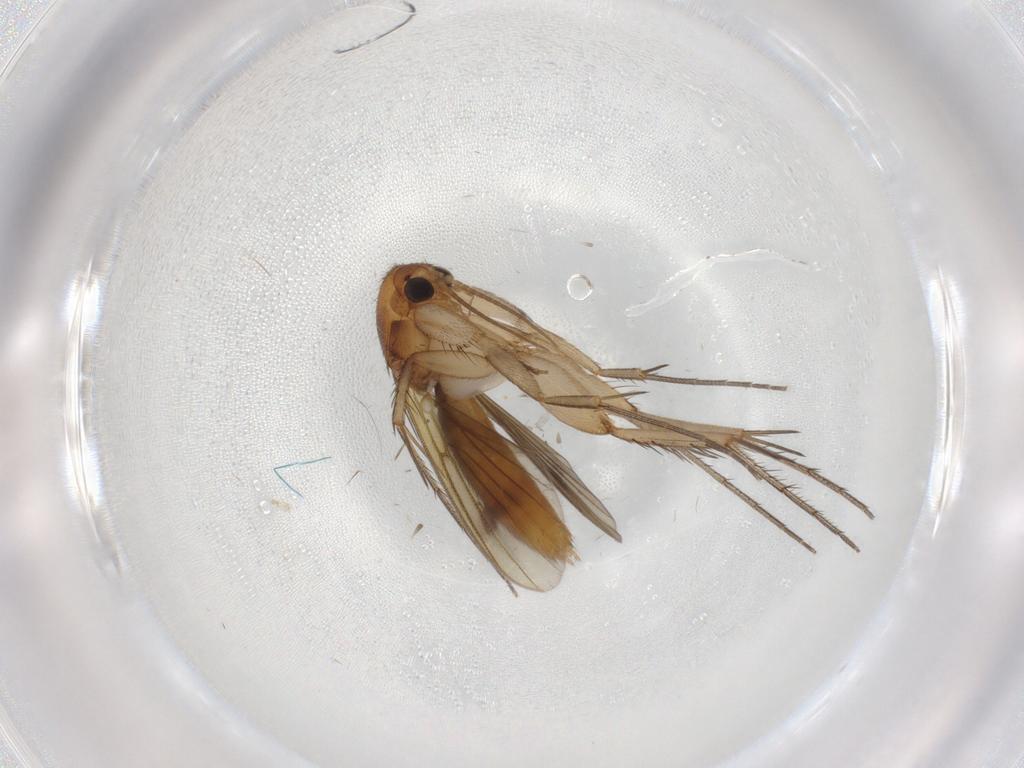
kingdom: Animalia
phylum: Arthropoda
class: Insecta
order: Diptera
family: Mycetophilidae
